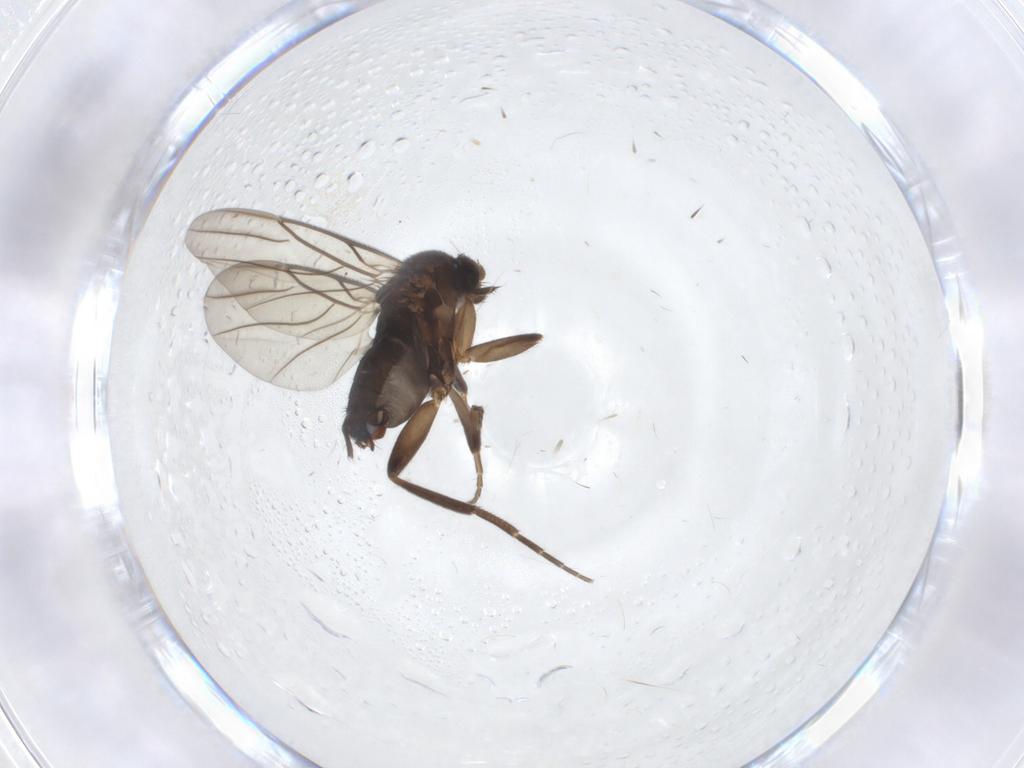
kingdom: Animalia
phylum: Arthropoda
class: Insecta
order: Diptera
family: Psychodidae
